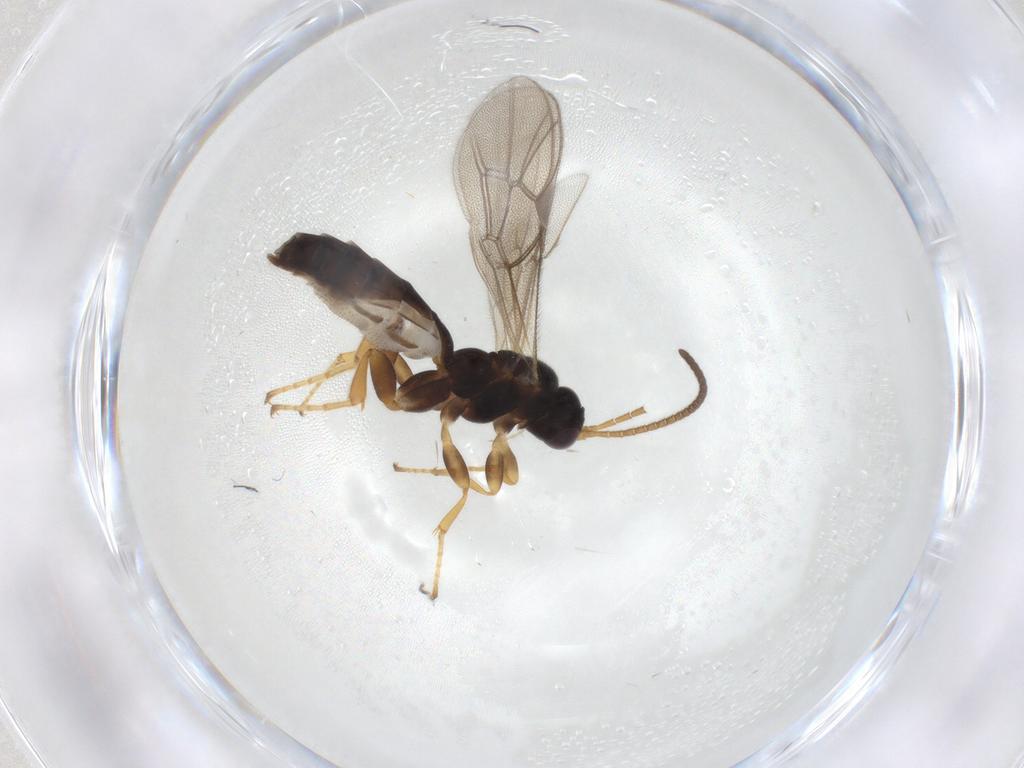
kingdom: Animalia
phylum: Arthropoda
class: Insecta
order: Hymenoptera
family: Ichneumonidae
